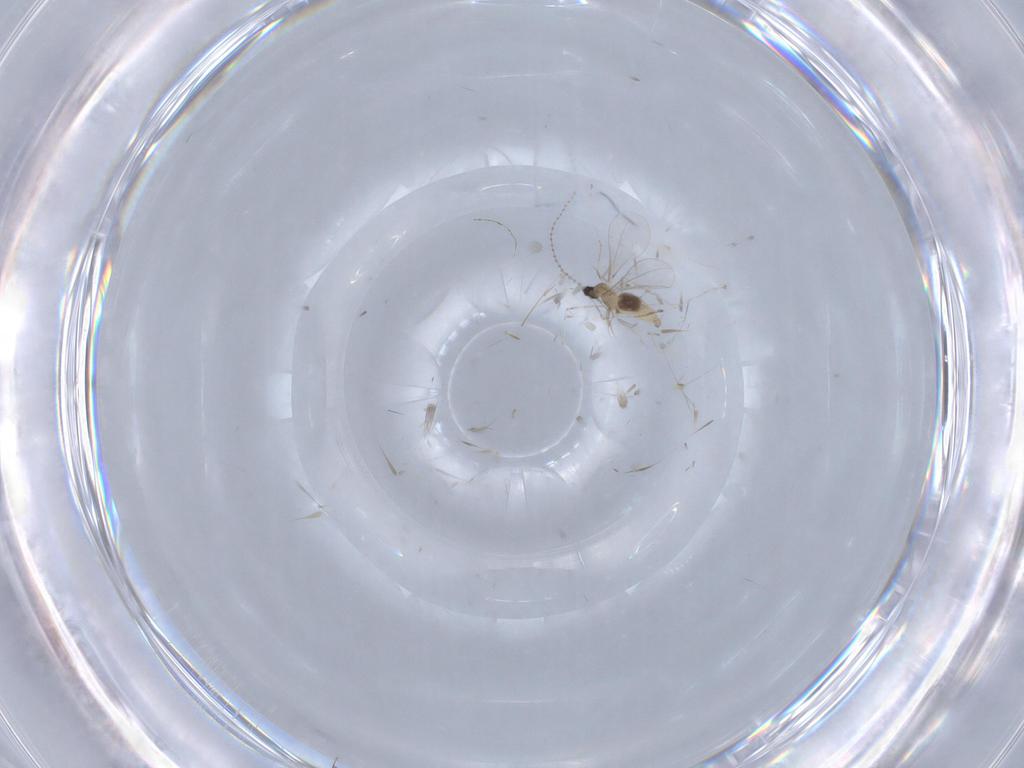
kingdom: Animalia
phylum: Arthropoda
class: Insecta
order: Diptera
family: Cecidomyiidae
